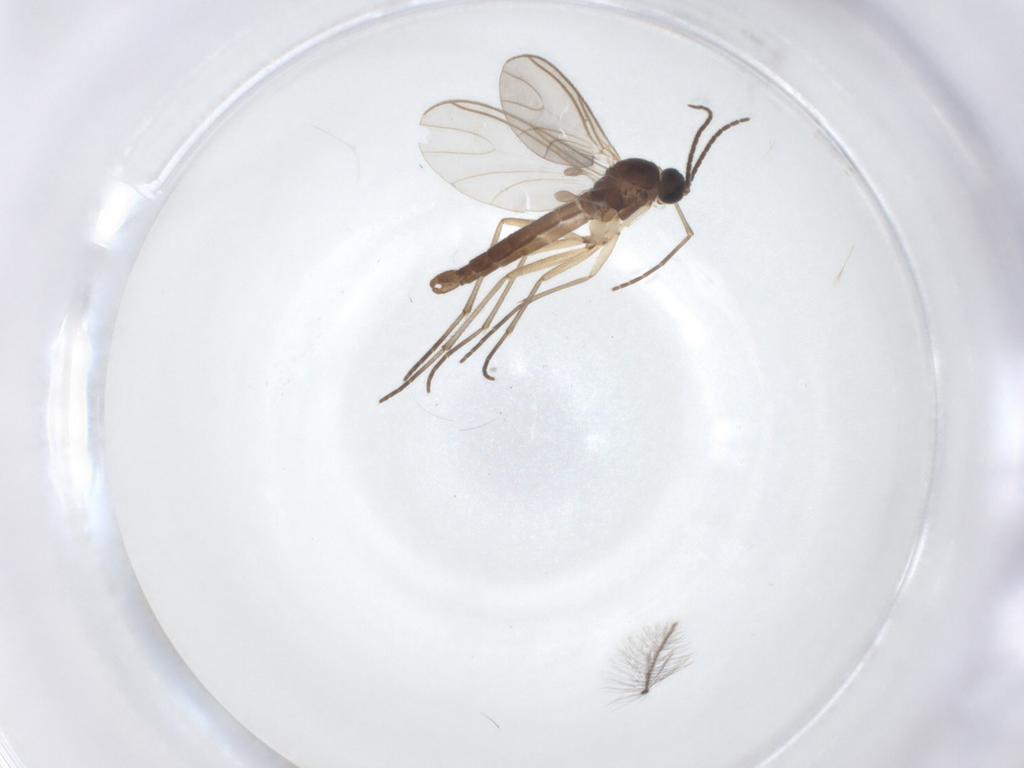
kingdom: Animalia
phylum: Arthropoda
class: Insecta
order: Diptera
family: Chironomidae
